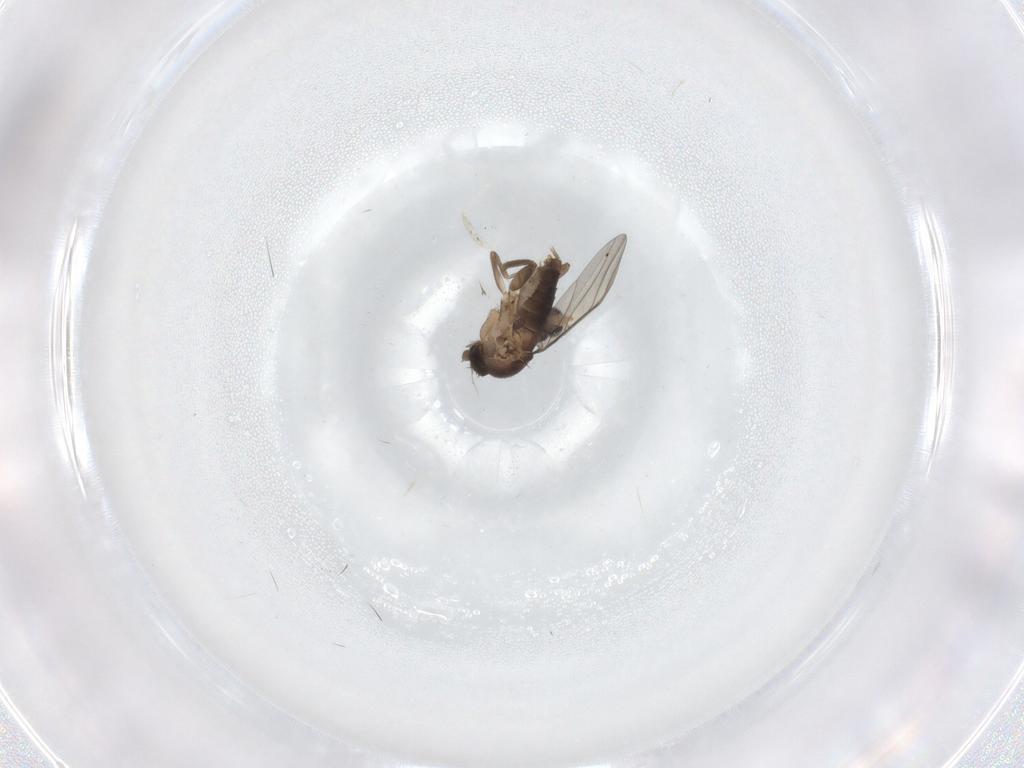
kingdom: Animalia
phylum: Arthropoda
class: Insecta
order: Diptera
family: Phoridae
